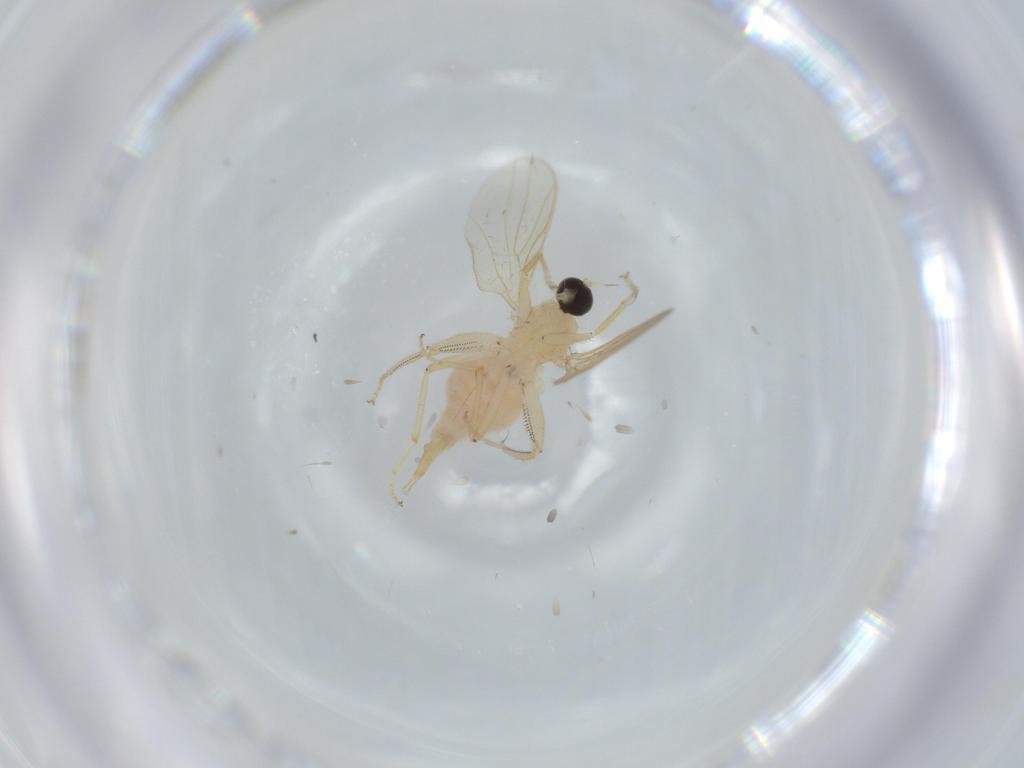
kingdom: Animalia
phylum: Arthropoda
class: Insecta
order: Diptera
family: Cecidomyiidae
